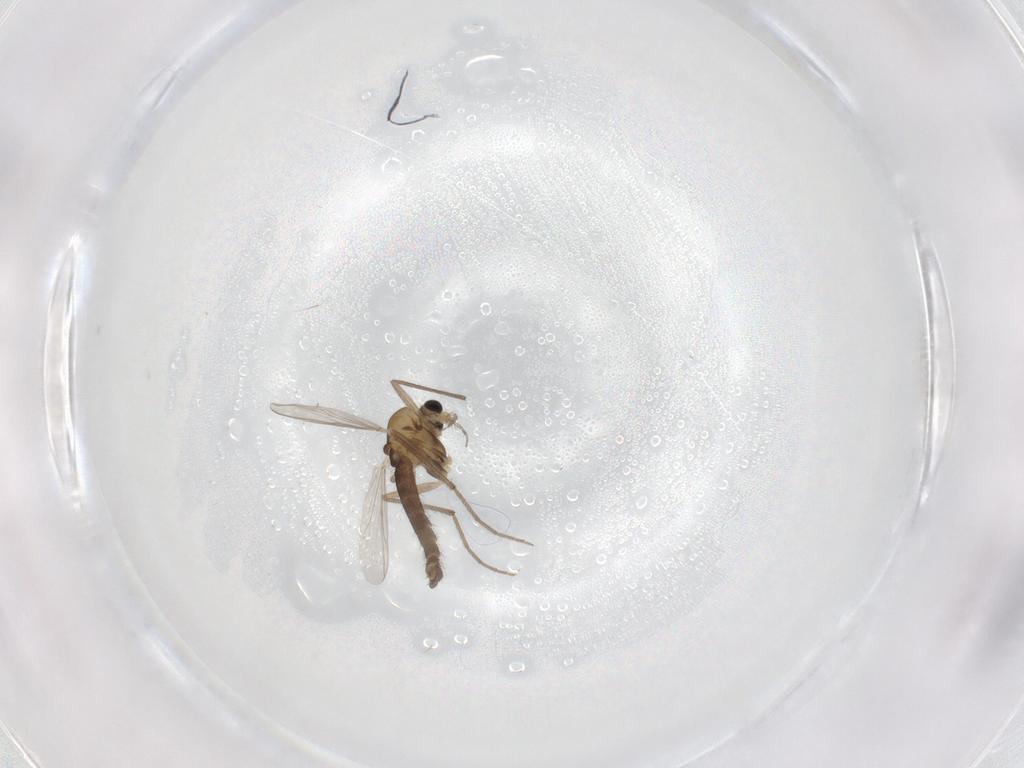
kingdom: Animalia
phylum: Arthropoda
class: Insecta
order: Diptera
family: Chironomidae
